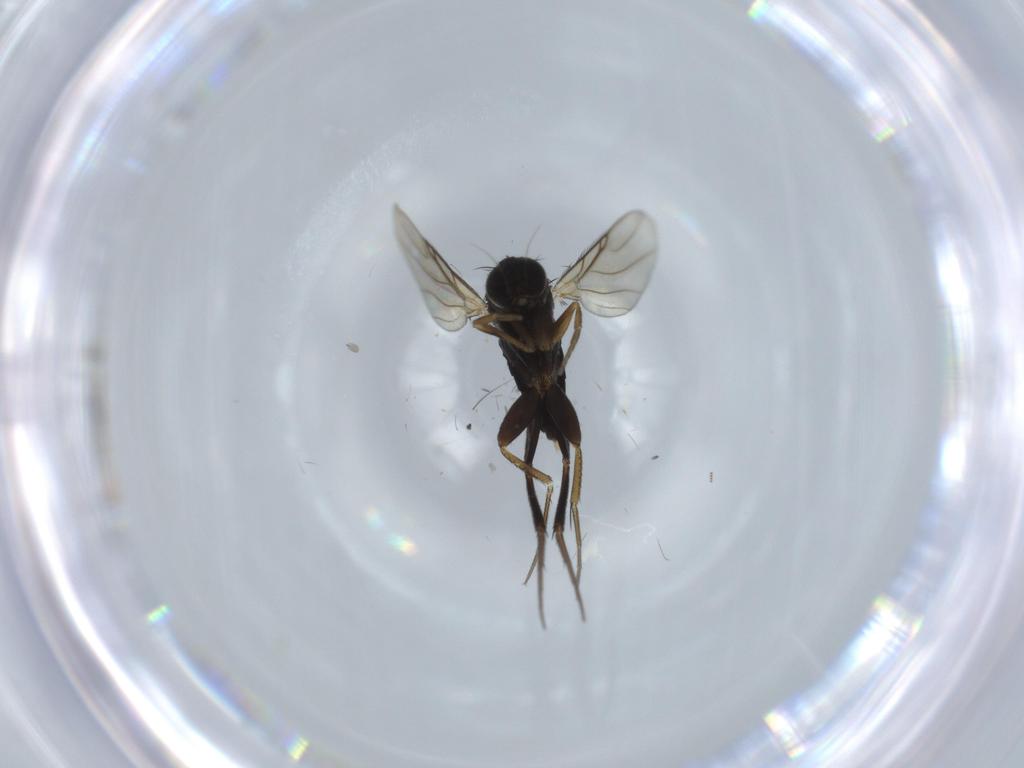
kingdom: Animalia
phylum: Arthropoda
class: Insecta
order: Diptera
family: Phoridae
